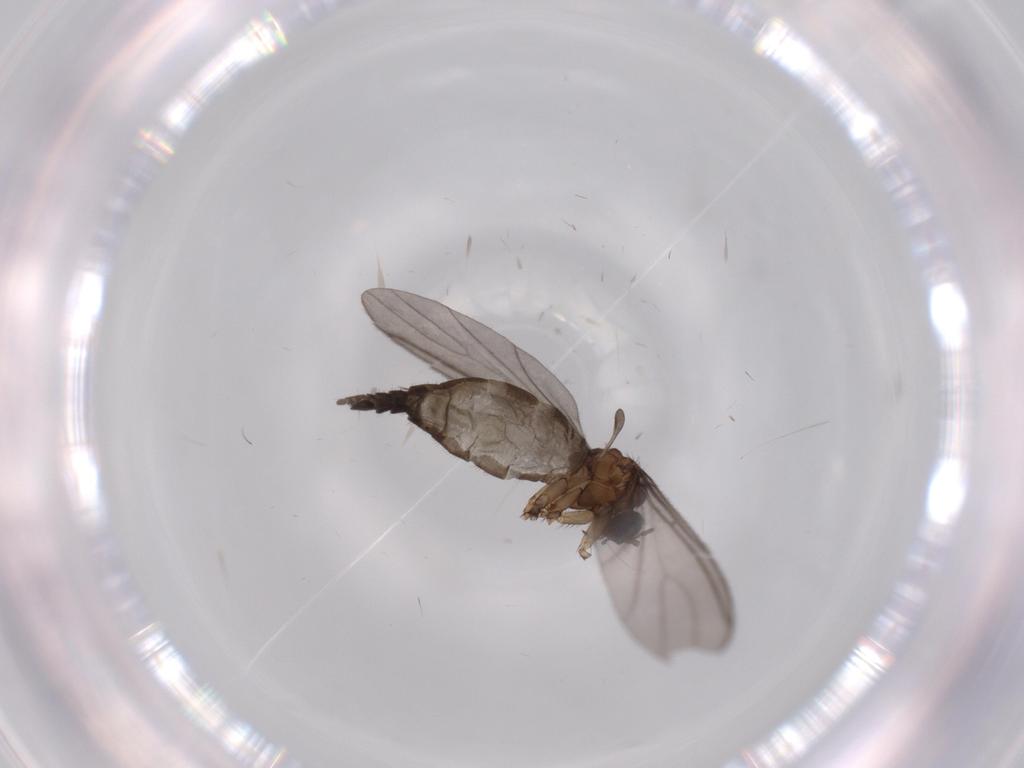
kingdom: Animalia
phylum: Arthropoda
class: Insecta
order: Diptera
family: Sciaridae
